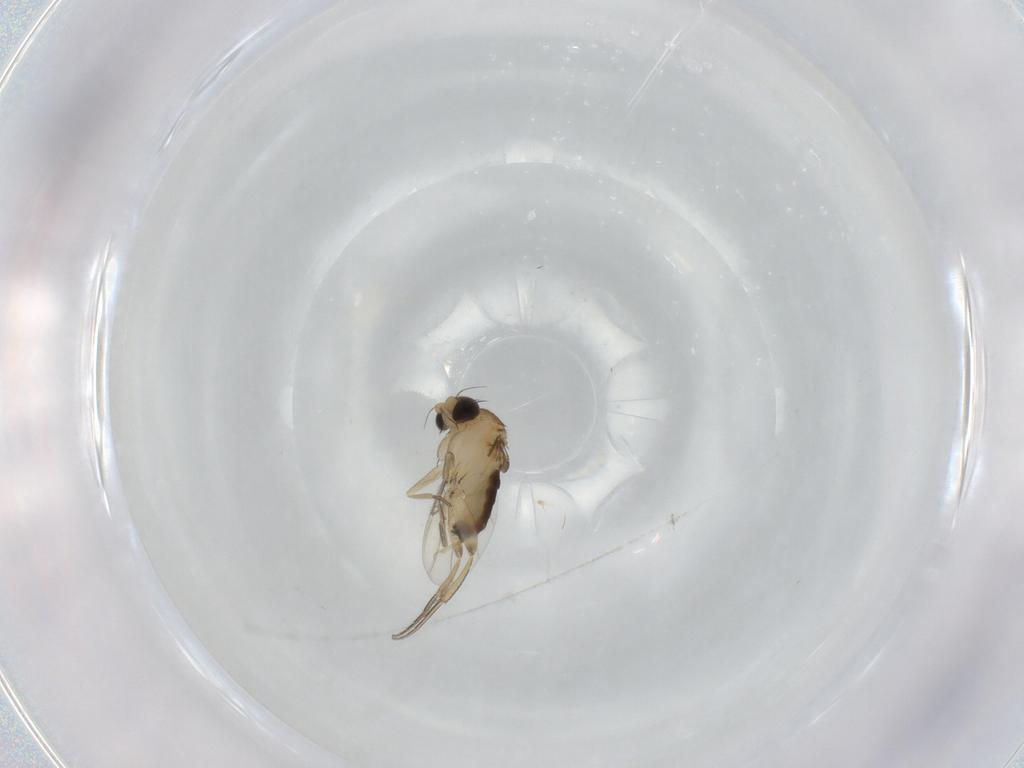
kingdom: Animalia
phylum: Arthropoda
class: Insecta
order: Diptera
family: Phoridae
